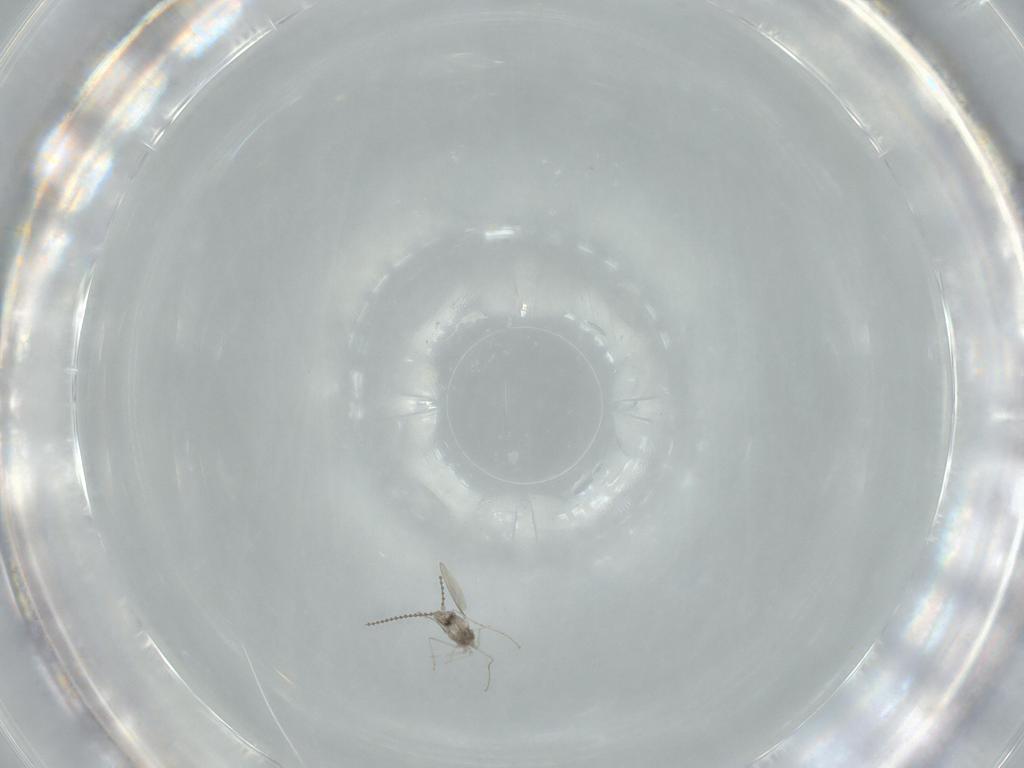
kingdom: Animalia
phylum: Arthropoda
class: Insecta
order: Diptera
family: Cecidomyiidae
